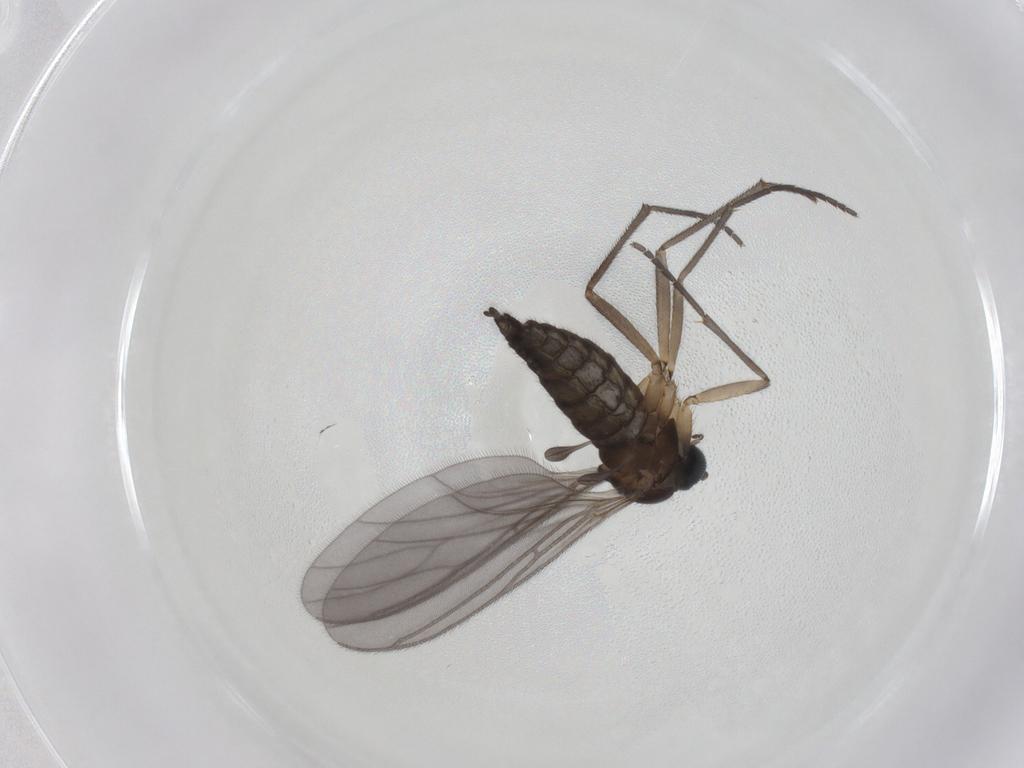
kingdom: Animalia
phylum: Arthropoda
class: Insecta
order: Diptera
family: Sciaridae
